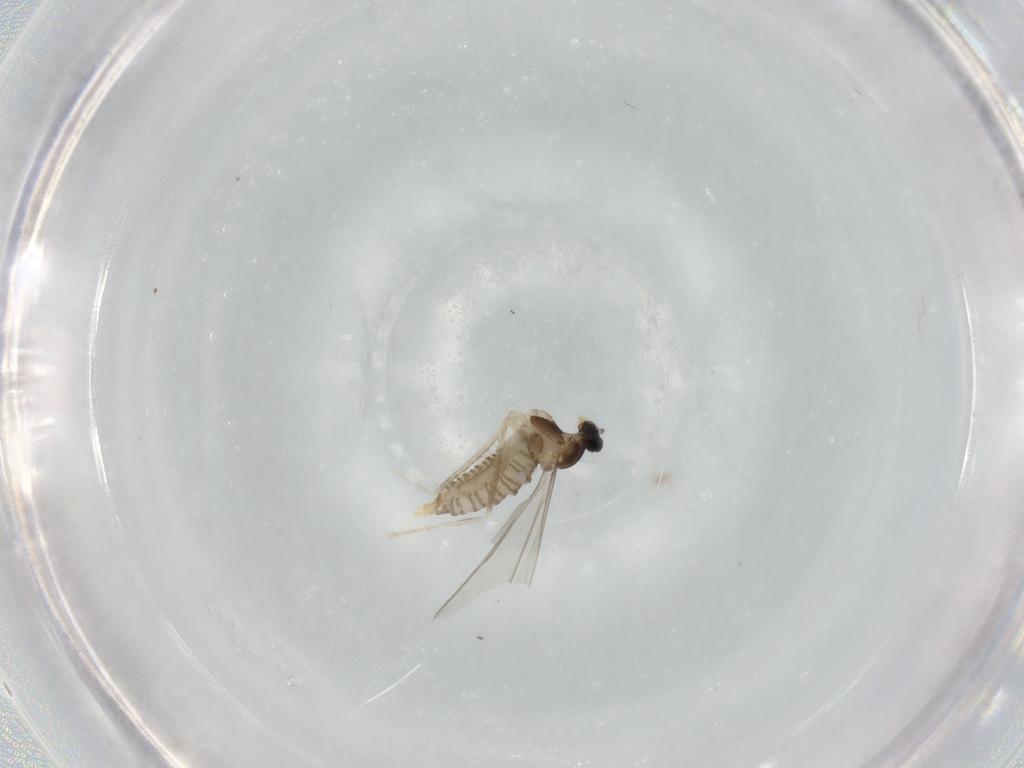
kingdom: Animalia
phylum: Arthropoda
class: Insecta
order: Diptera
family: Cecidomyiidae
